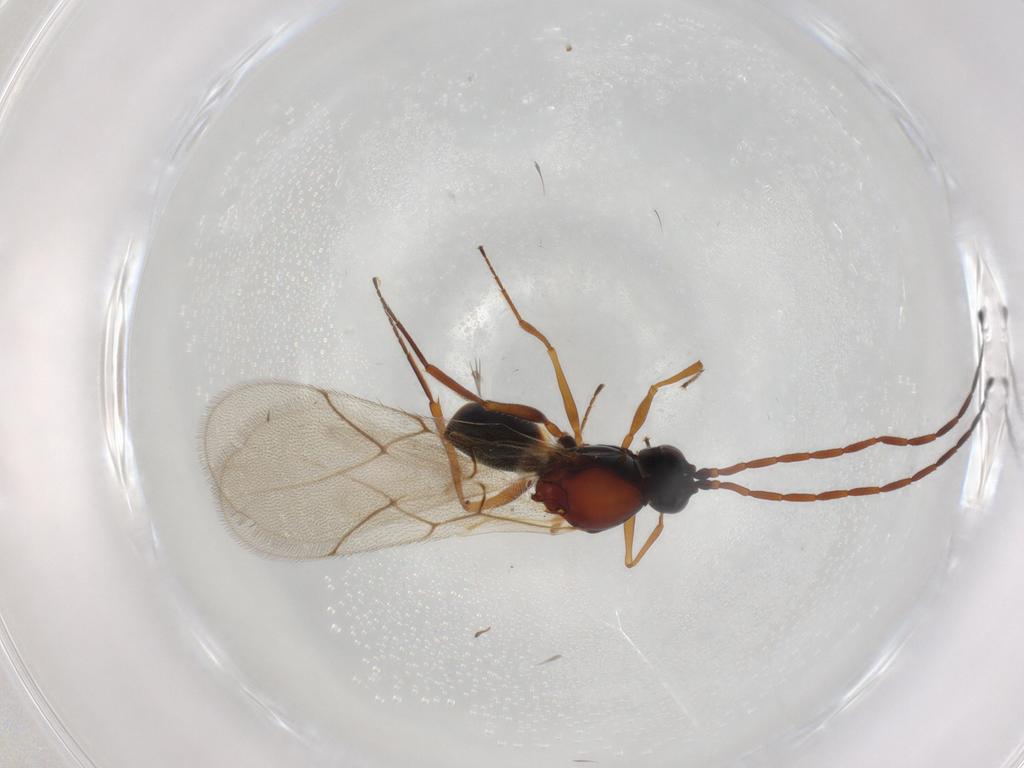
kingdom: Animalia
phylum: Arthropoda
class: Insecta
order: Hymenoptera
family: Figitidae
